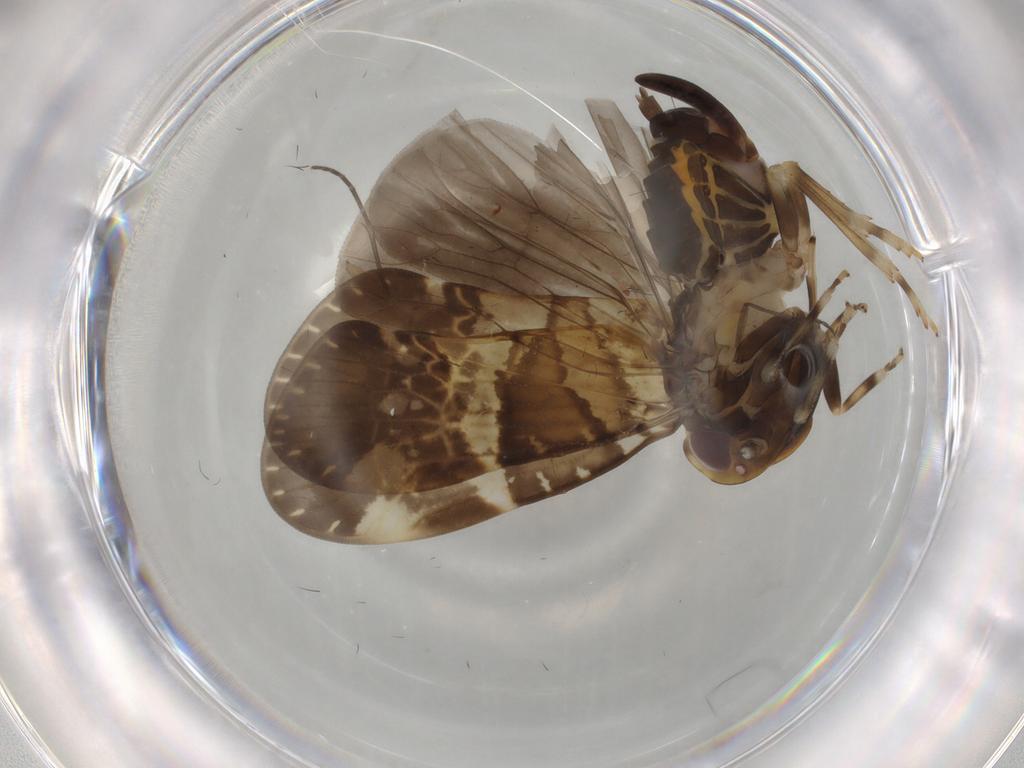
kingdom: Animalia
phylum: Arthropoda
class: Insecta
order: Hemiptera
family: Cixiidae
